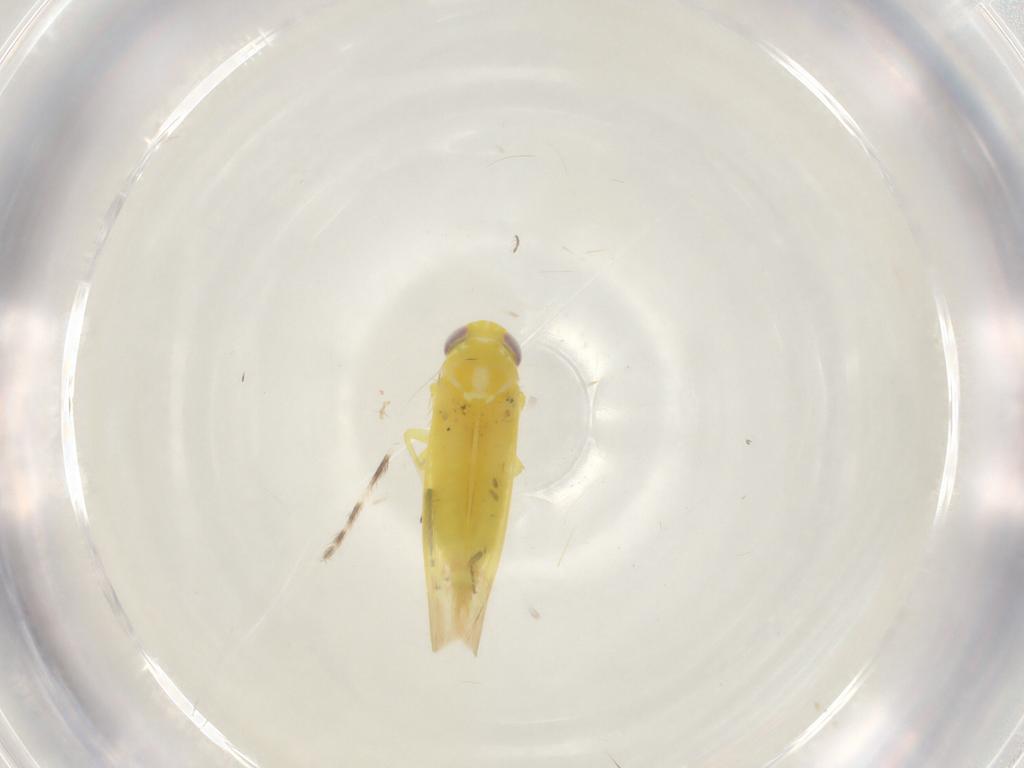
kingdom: Animalia
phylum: Arthropoda
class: Insecta
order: Hemiptera
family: Cicadellidae
